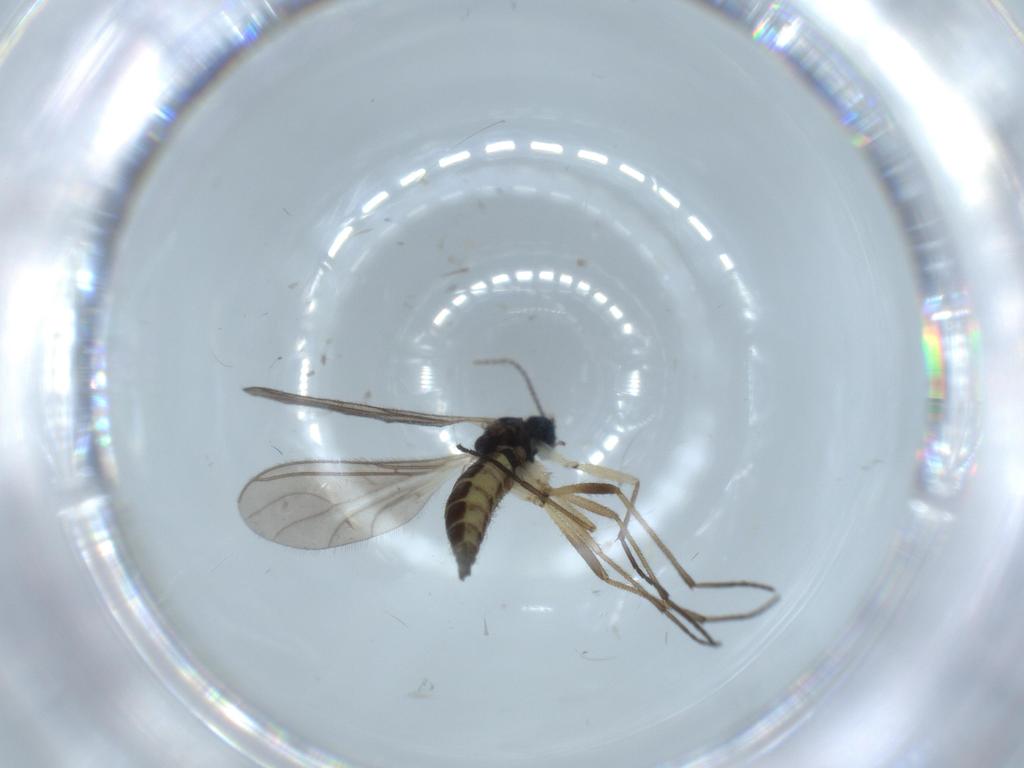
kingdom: Animalia
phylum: Arthropoda
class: Insecta
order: Diptera
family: Sciaridae
